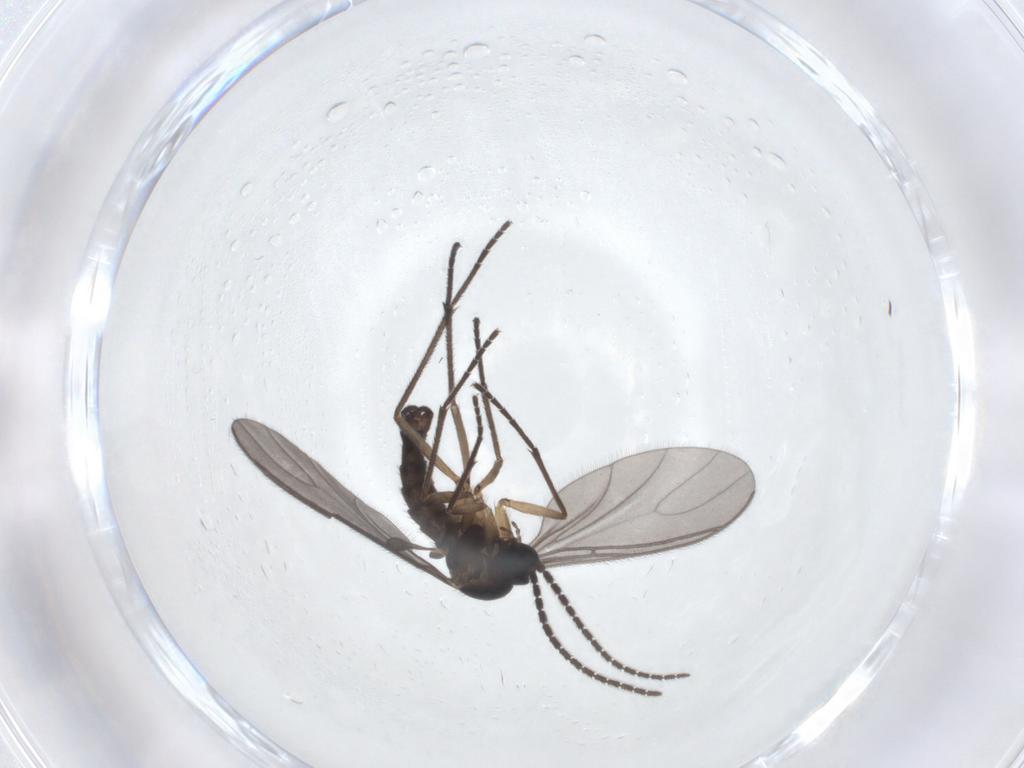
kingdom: Animalia
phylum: Arthropoda
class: Insecta
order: Diptera
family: Sciaridae
